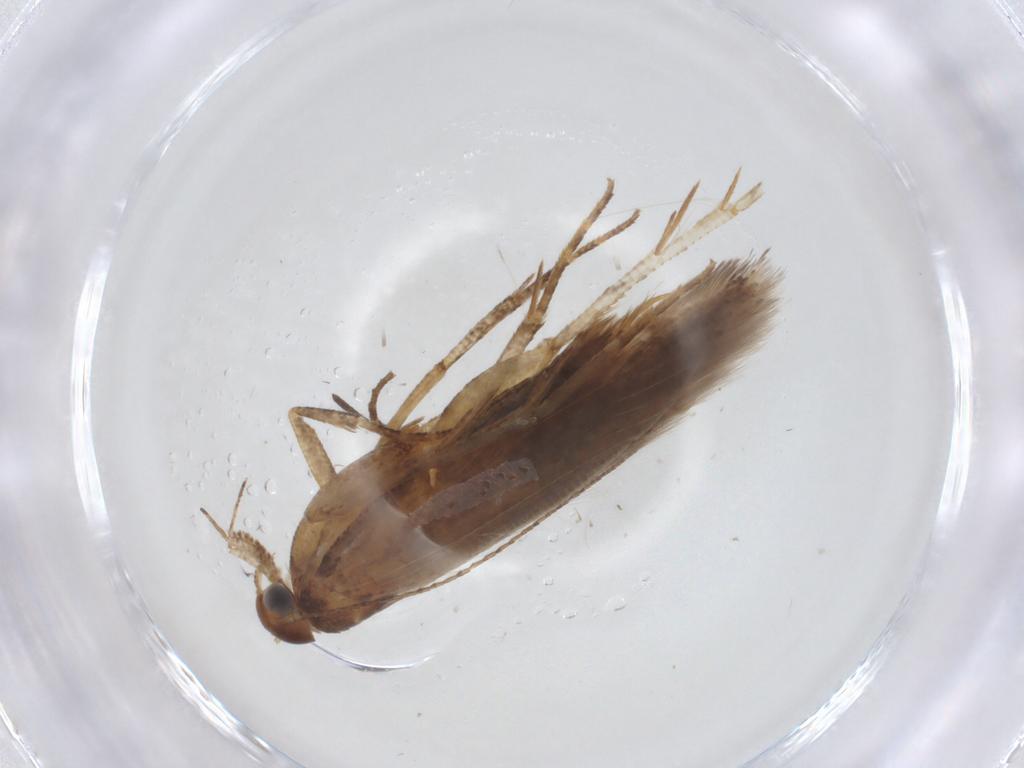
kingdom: Animalia
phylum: Arthropoda
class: Insecta
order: Lepidoptera
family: Gelechiidae
